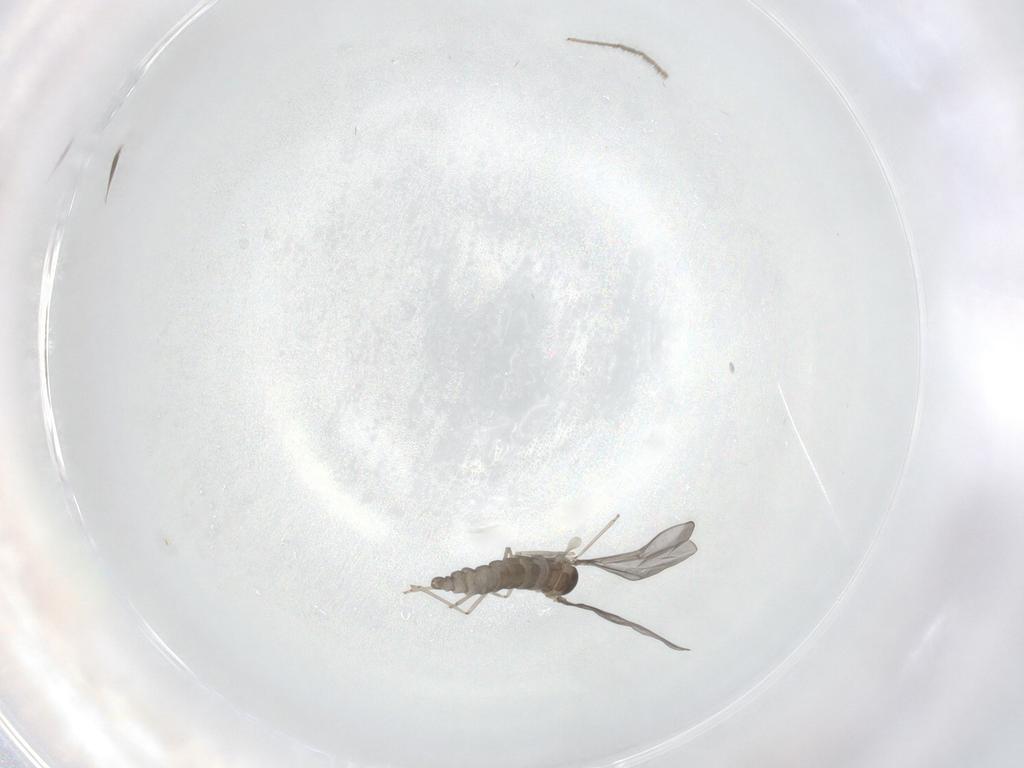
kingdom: Animalia
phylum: Arthropoda
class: Insecta
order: Diptera
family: Cecidomyiidae
